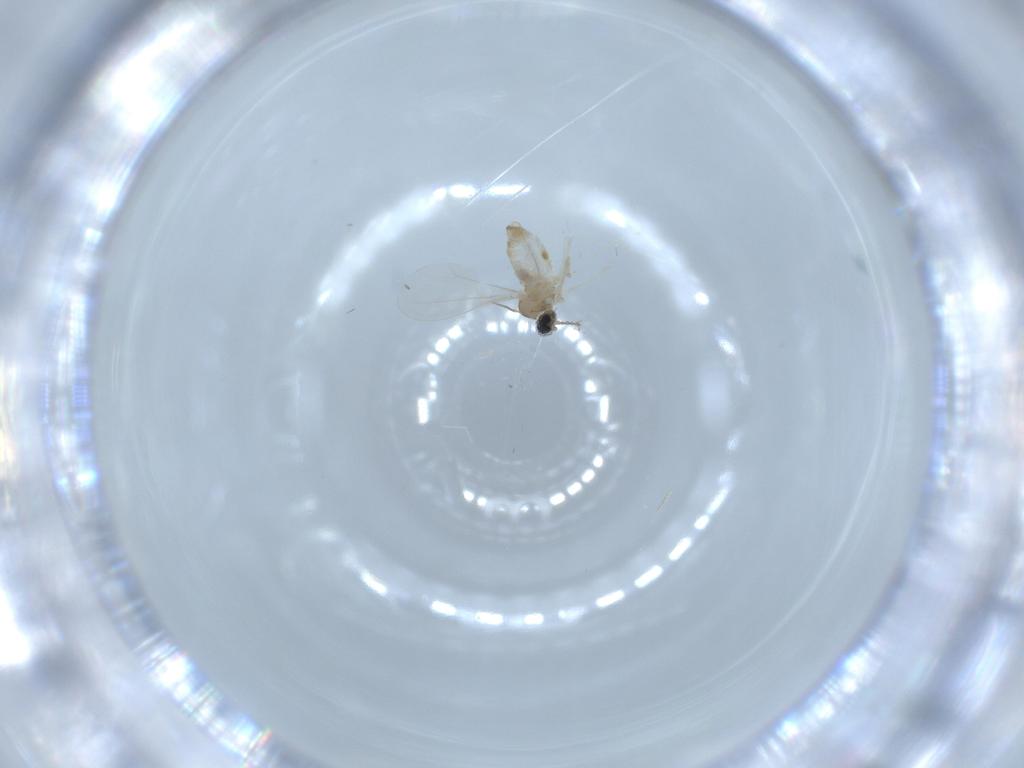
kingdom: Animalia
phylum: Arthropoda
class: Insecta
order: Diptera
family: Cecidomyiidae
